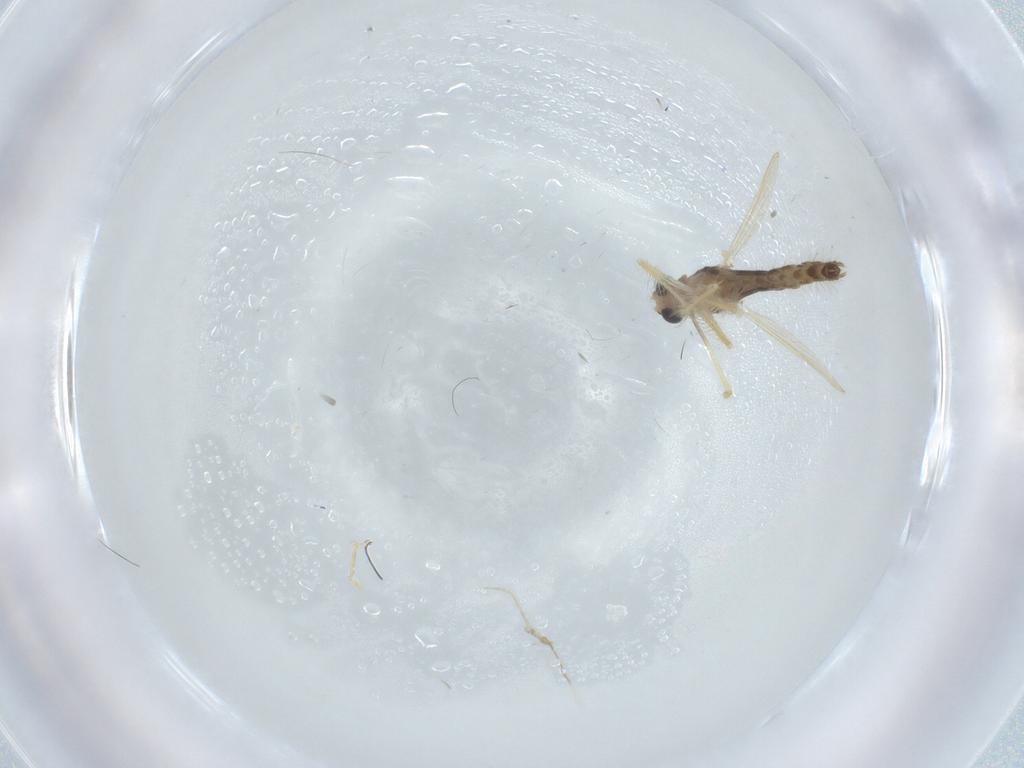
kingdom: Animalia
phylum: Arthropoda
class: Insecta
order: Diptera
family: Chironomidae
